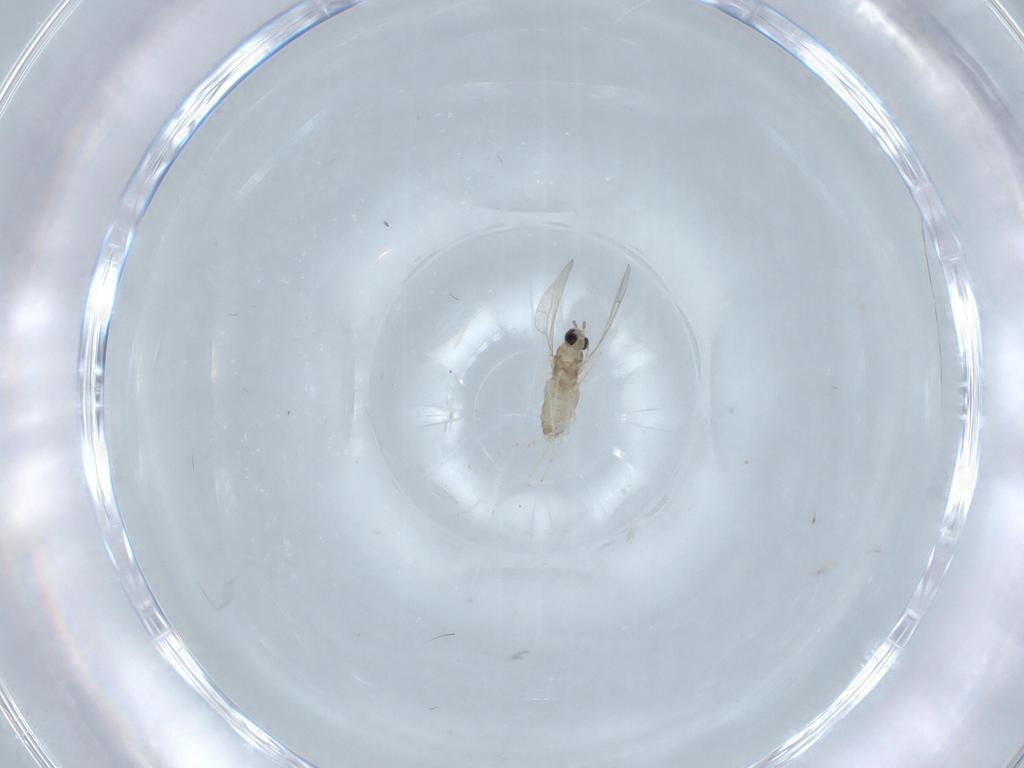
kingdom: Animalia
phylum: Arthropoda
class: Insecta
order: Diptera
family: Cecidomyiidae
